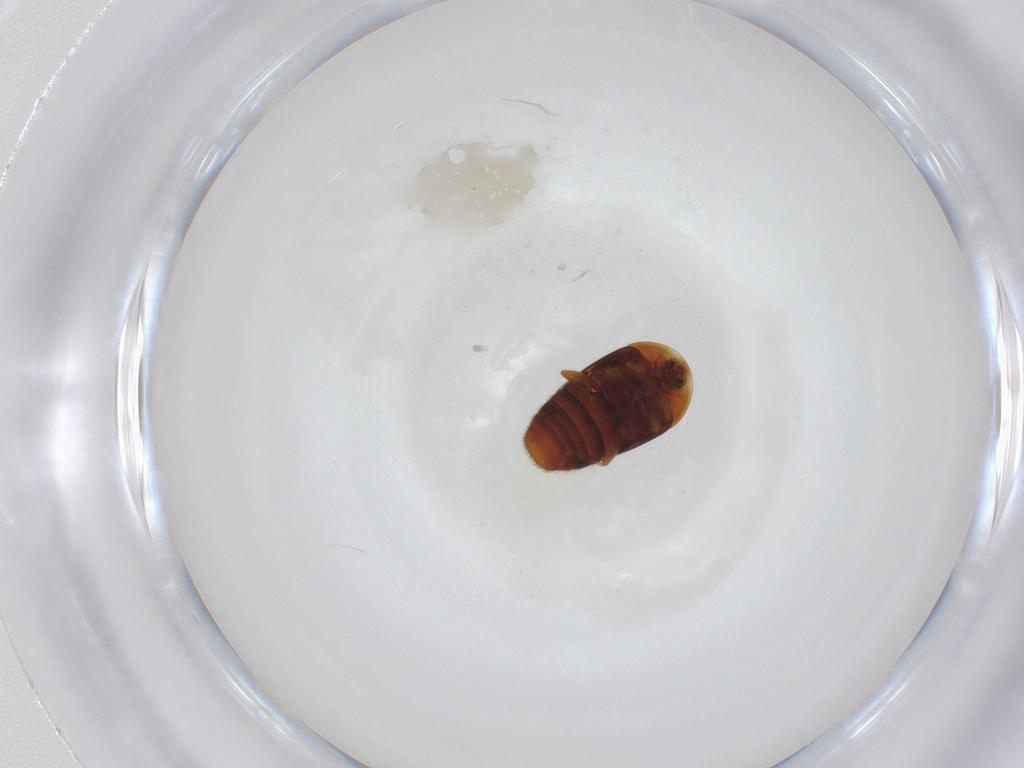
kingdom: Animalia
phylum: Arthropoda
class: Insecta
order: Coleoptera
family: Corylophidae
